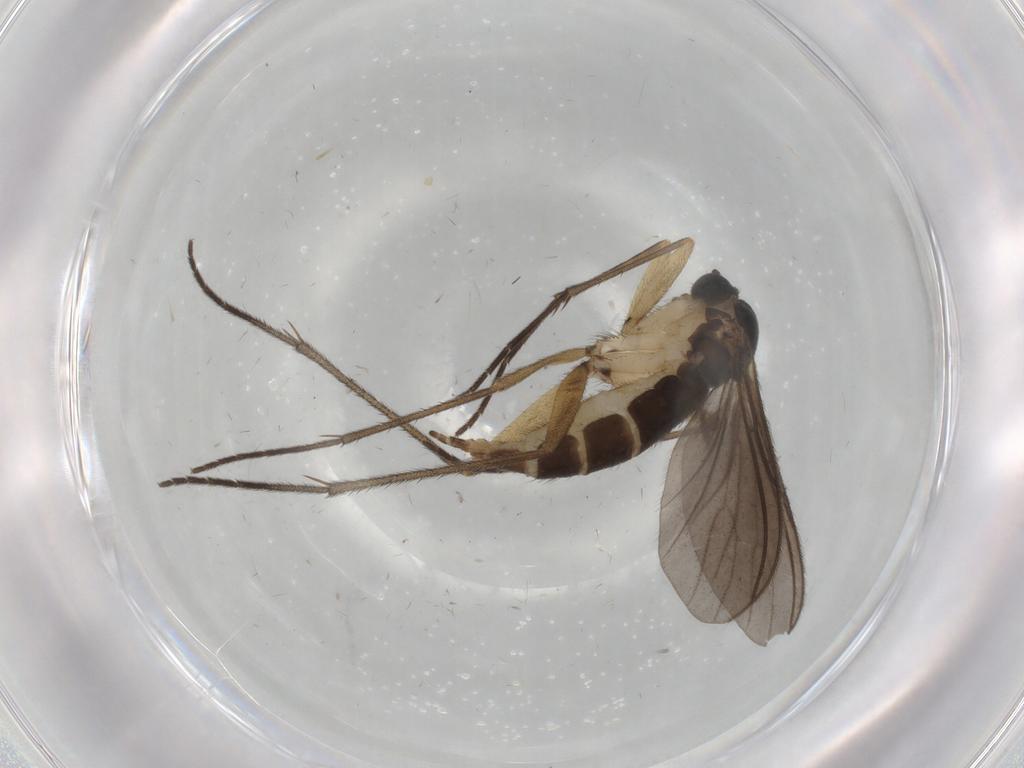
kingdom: Animalia
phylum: Arthropoda
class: Insecta
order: Diptera
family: Sciaridae
